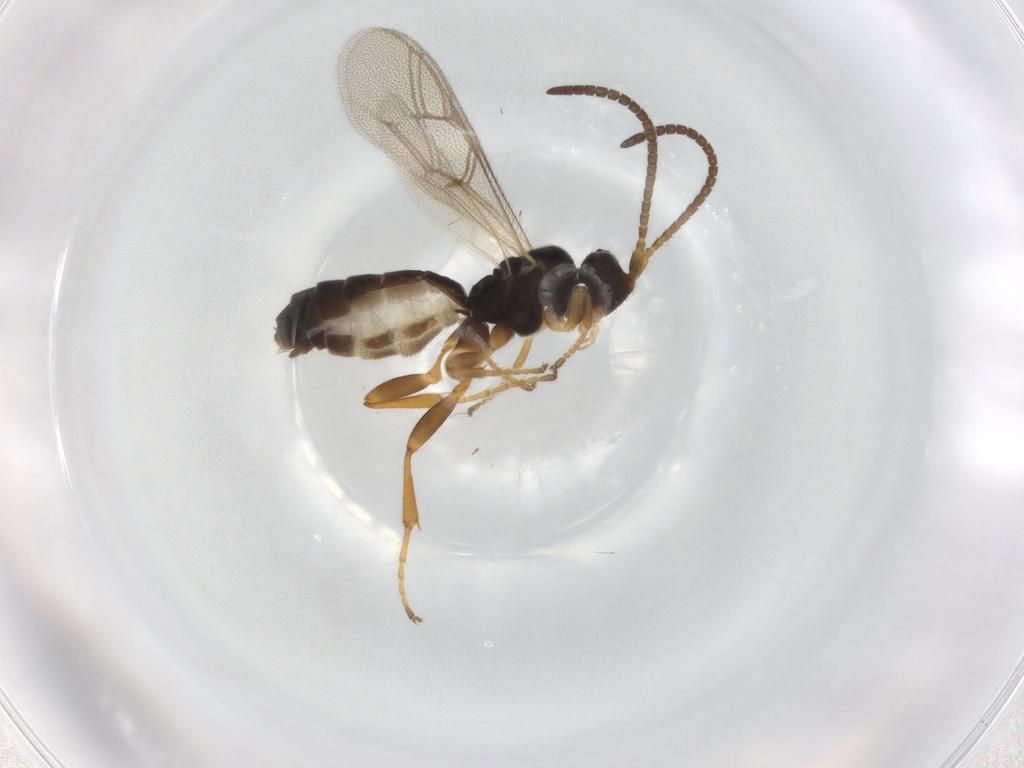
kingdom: Animalia
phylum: Arthropoda
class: Insecta
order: Hymenoptera
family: Ichneumonidae
